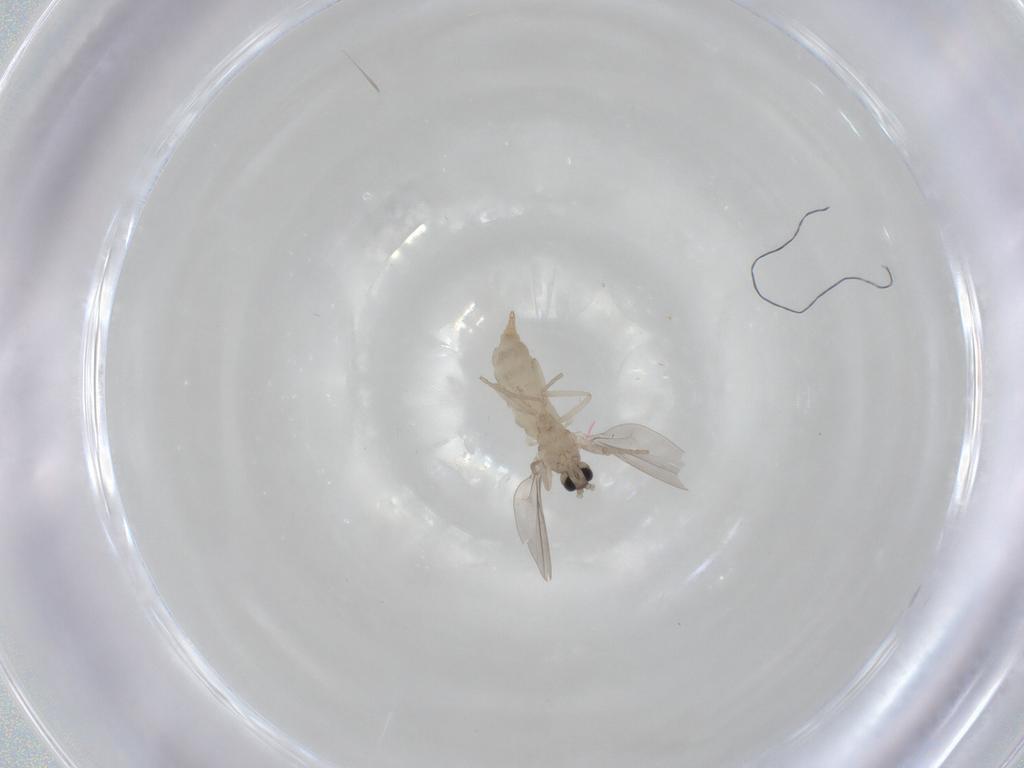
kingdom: Animalia
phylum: Arthropoda
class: Insecta
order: Diptera
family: Cecidomyiidae
